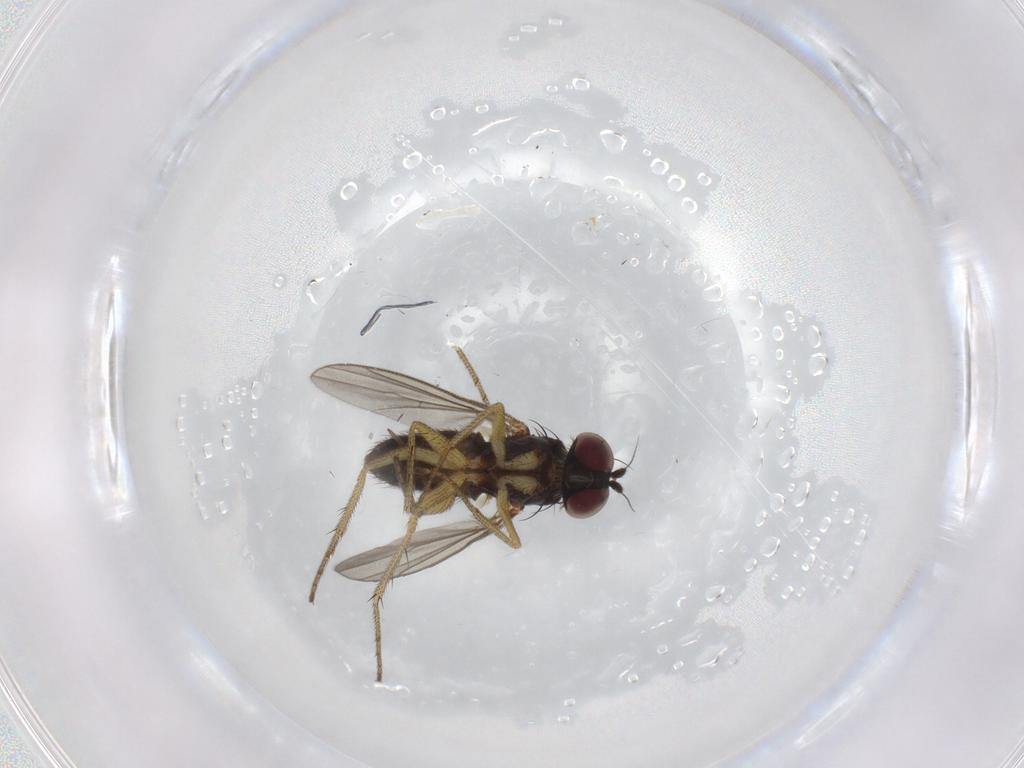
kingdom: Animalia
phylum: Arthropoda
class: Insecta
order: Diptera
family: Dolichopodidae
